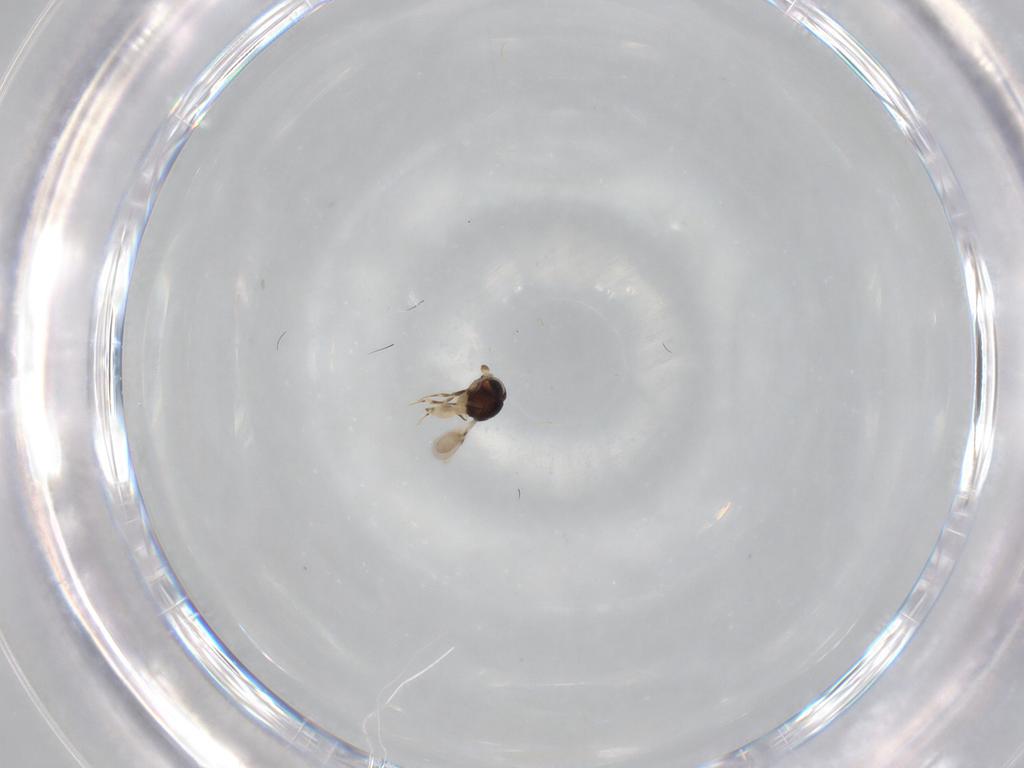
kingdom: Animalia
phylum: Arthropoda
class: Insecta
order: Hymenoptera
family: Scelionidae
